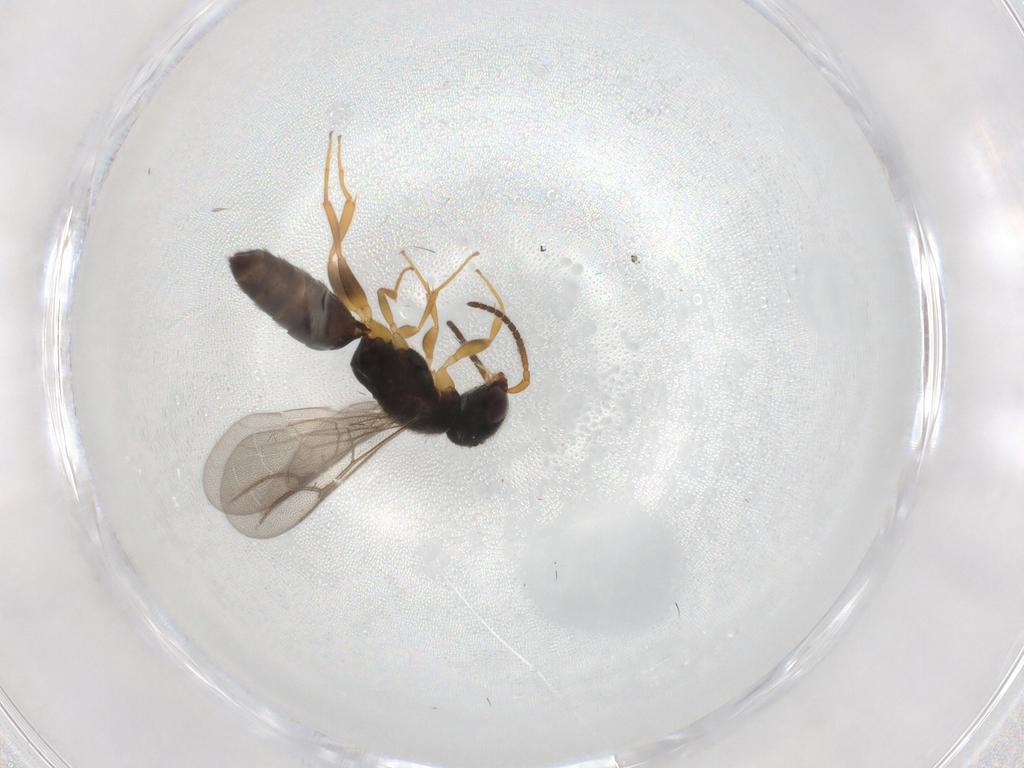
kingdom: Animalia
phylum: Arthropoda
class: Insecta
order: Hymenoptera
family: Bethylidae
